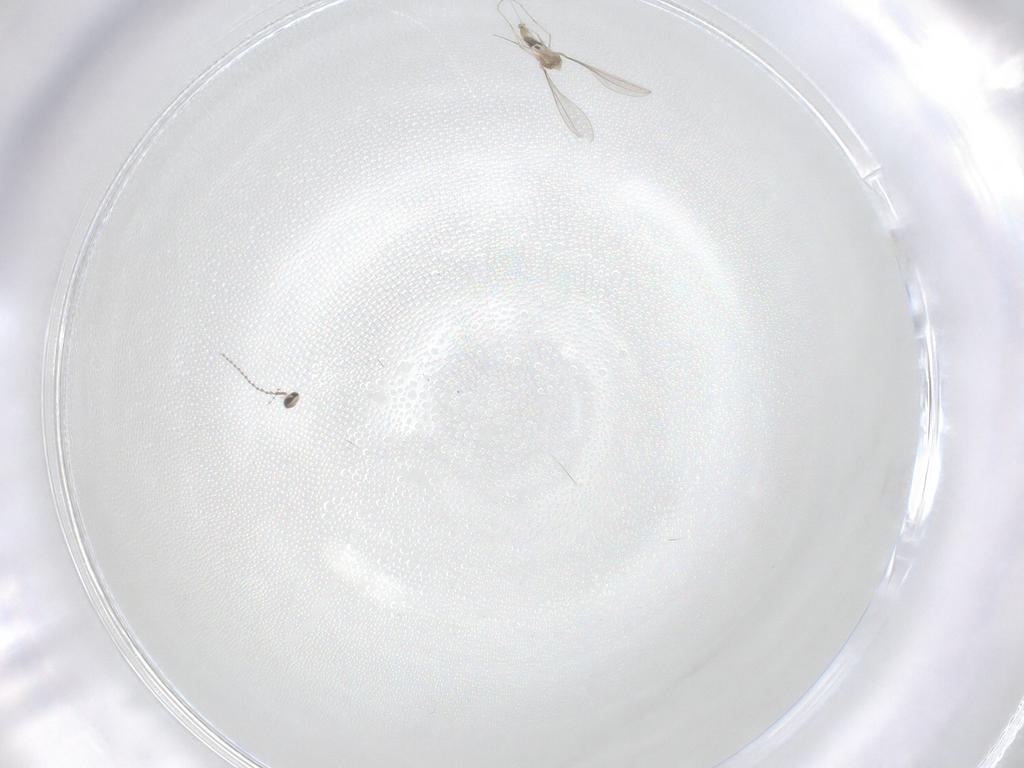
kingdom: Animalia
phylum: Arthropoda
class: Insecta
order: Diptera
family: Cecidomyiidae
